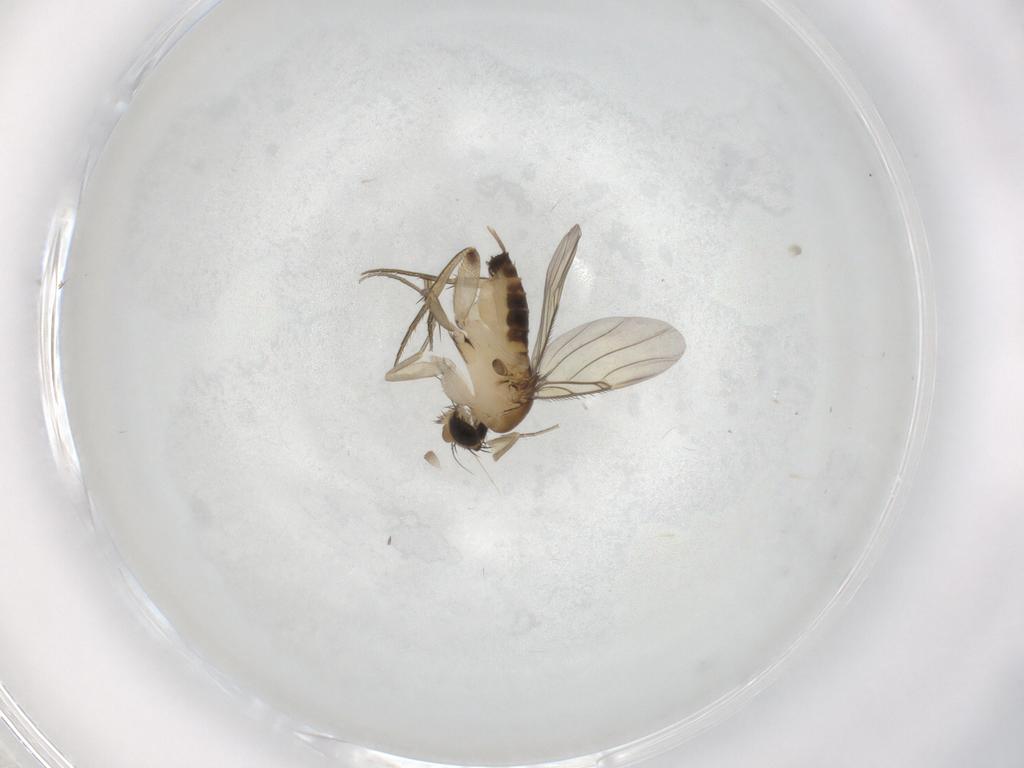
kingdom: Animalia
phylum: Arthropoda
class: Insecta
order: Diptera
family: Phoridae
